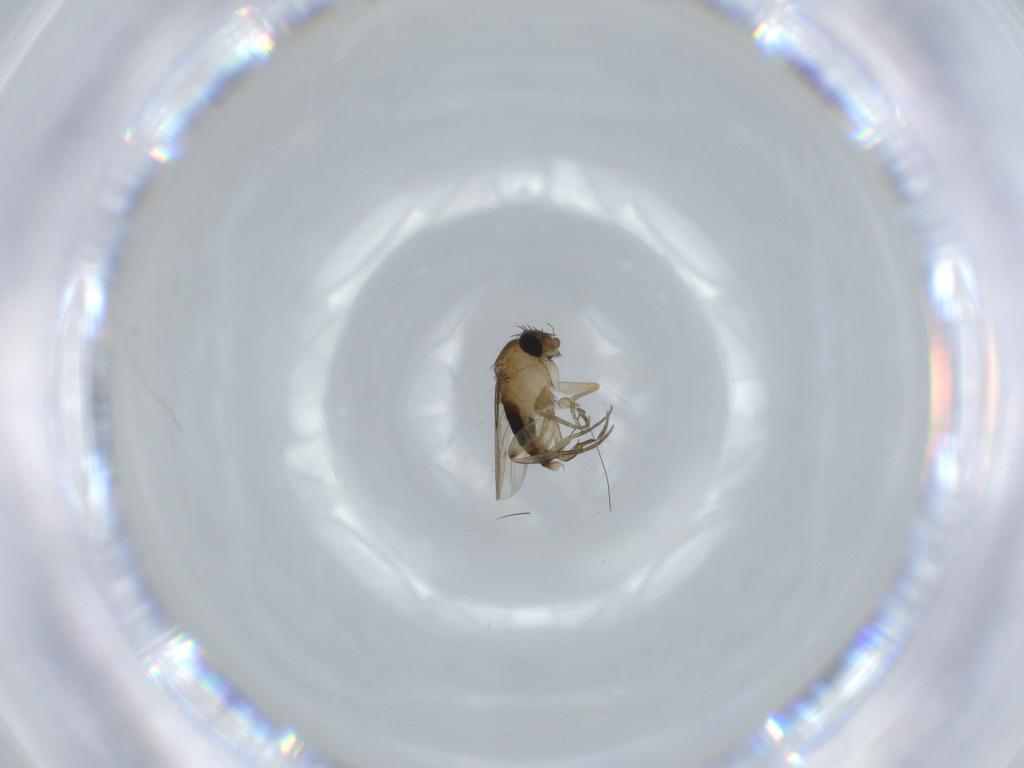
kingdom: Animalia
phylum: Arthropoda
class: Insecta
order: Diptera
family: Phoridae
